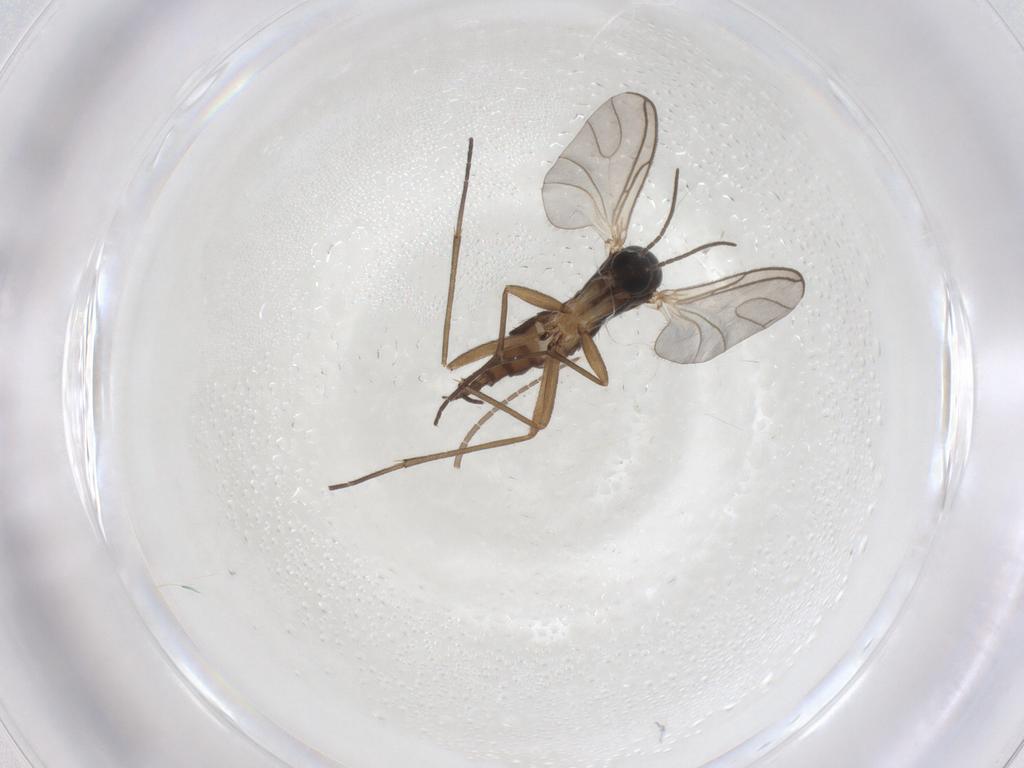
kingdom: Animalia
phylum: Arthropoda
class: Insecta
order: Diptera
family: Sciaridae
